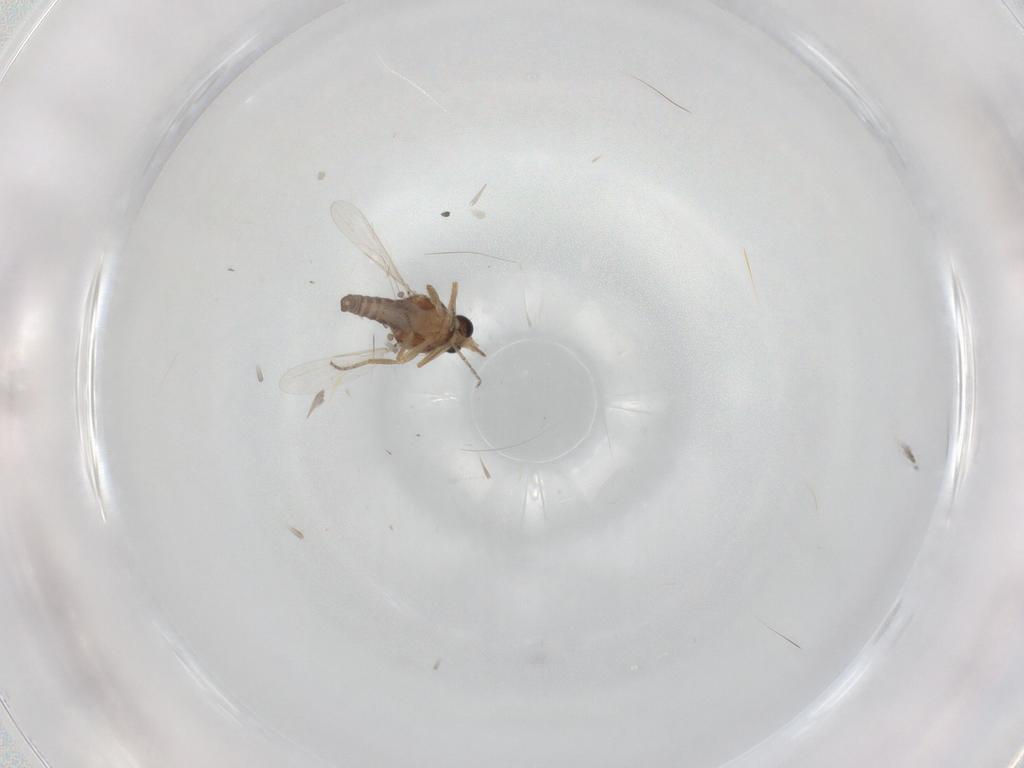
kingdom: Animalia
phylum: Arthropoda
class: Insecta
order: Diptera
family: Ceratopogonidae
